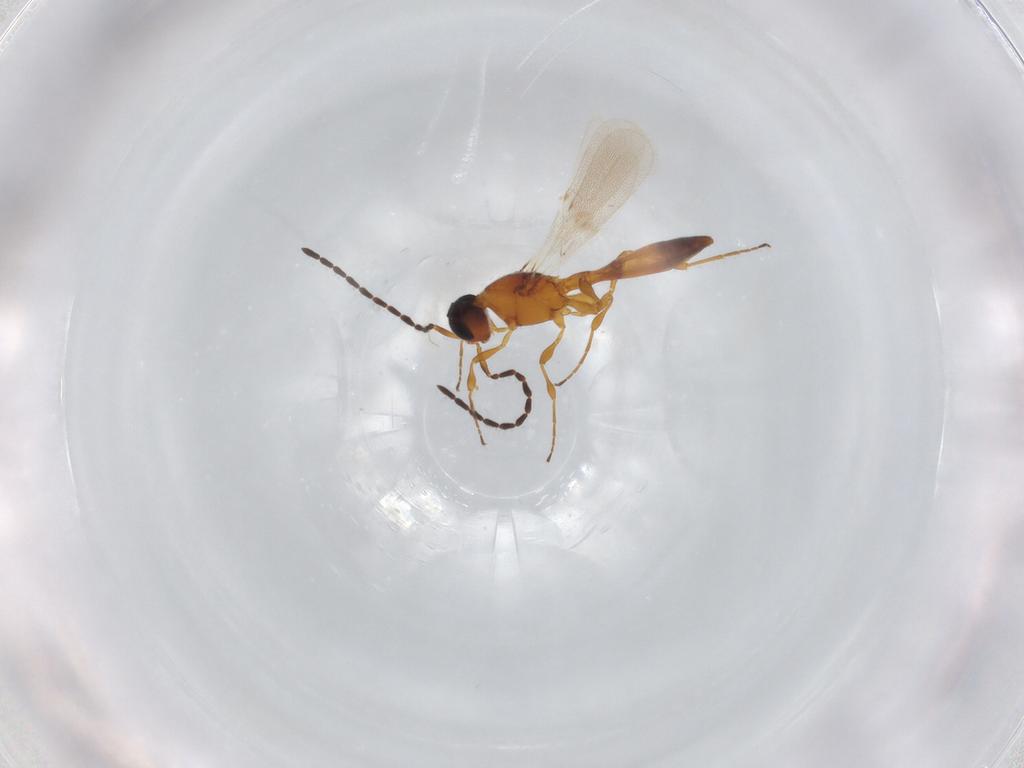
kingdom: Animalia
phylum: Arthropoda
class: Insecta
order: Hymenoptera
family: Scelionidae
